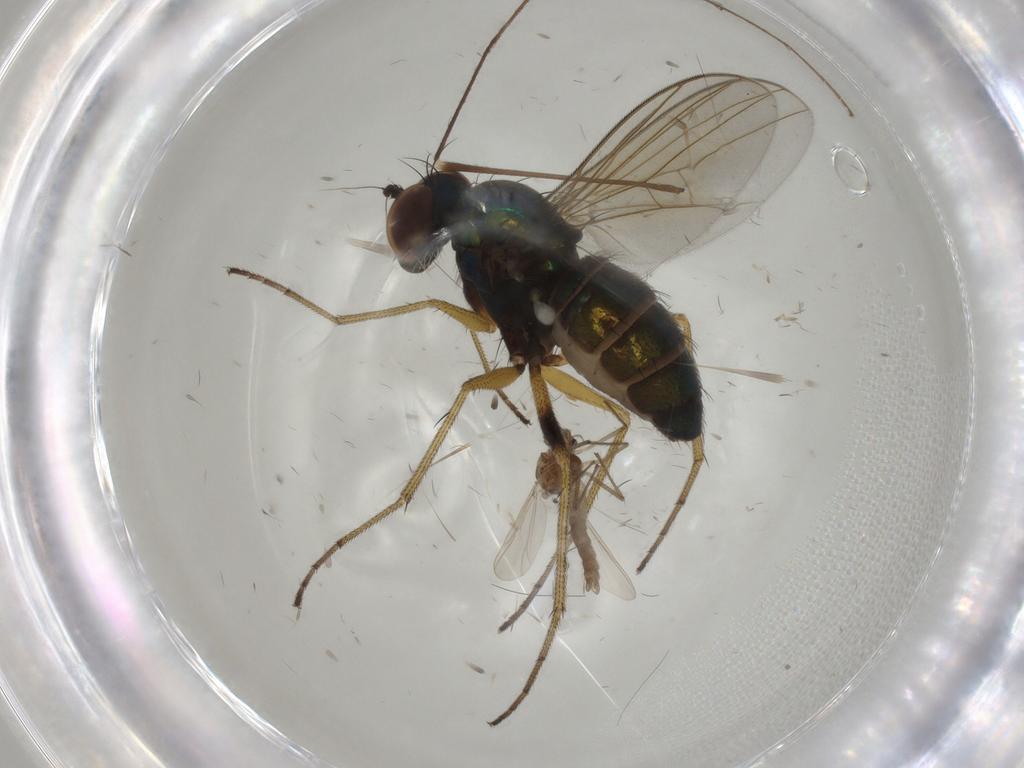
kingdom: Animalia
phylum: Arthropoda
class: Insecta
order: Diptera
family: Dolichopodidae
